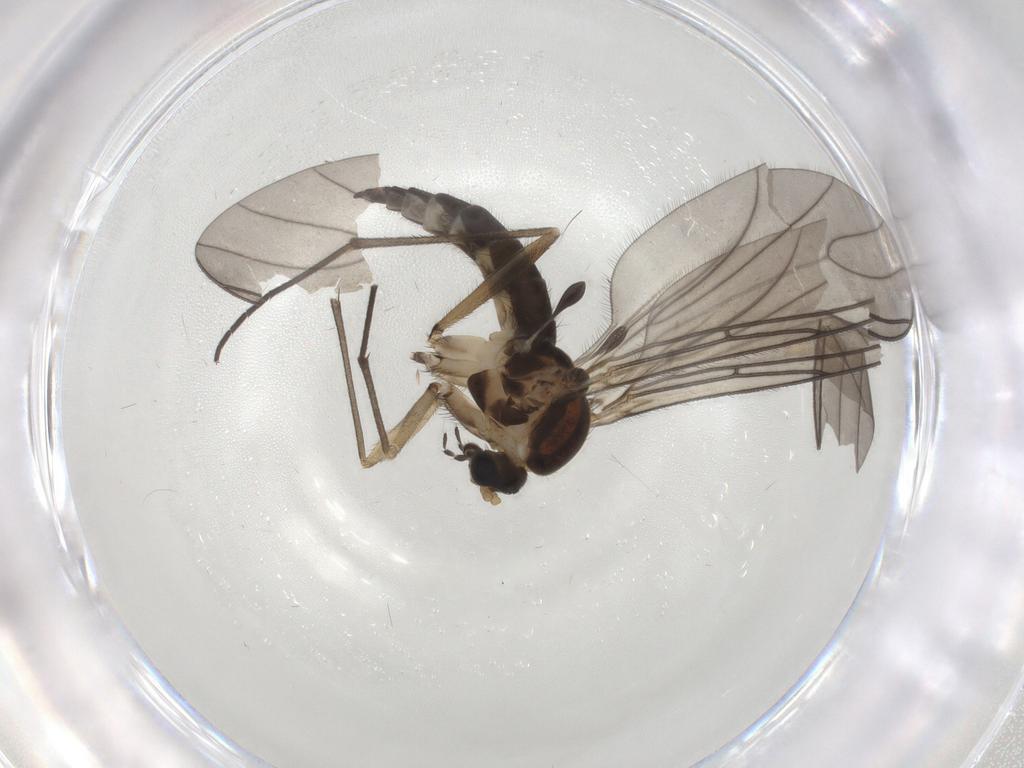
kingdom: Animalia
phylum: Arthropoda
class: Insecta
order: Diptera
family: Sciaridae
